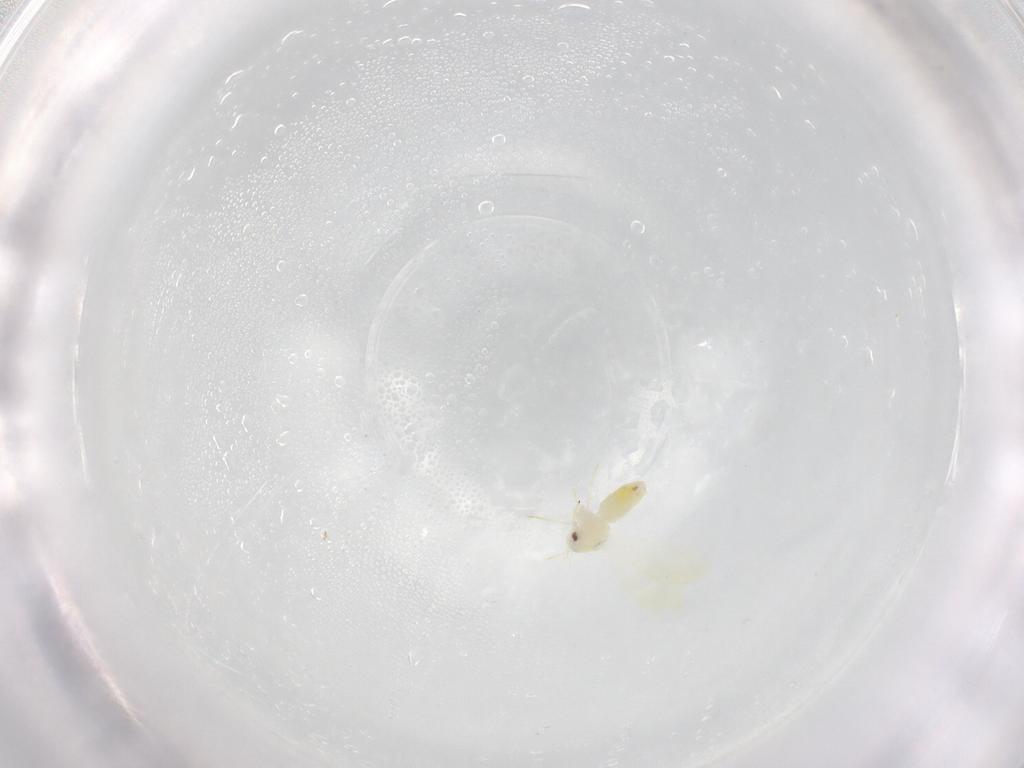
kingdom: Animalia
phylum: Arthropoda
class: Insecta
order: Hemiptera
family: Aleyrodidae
